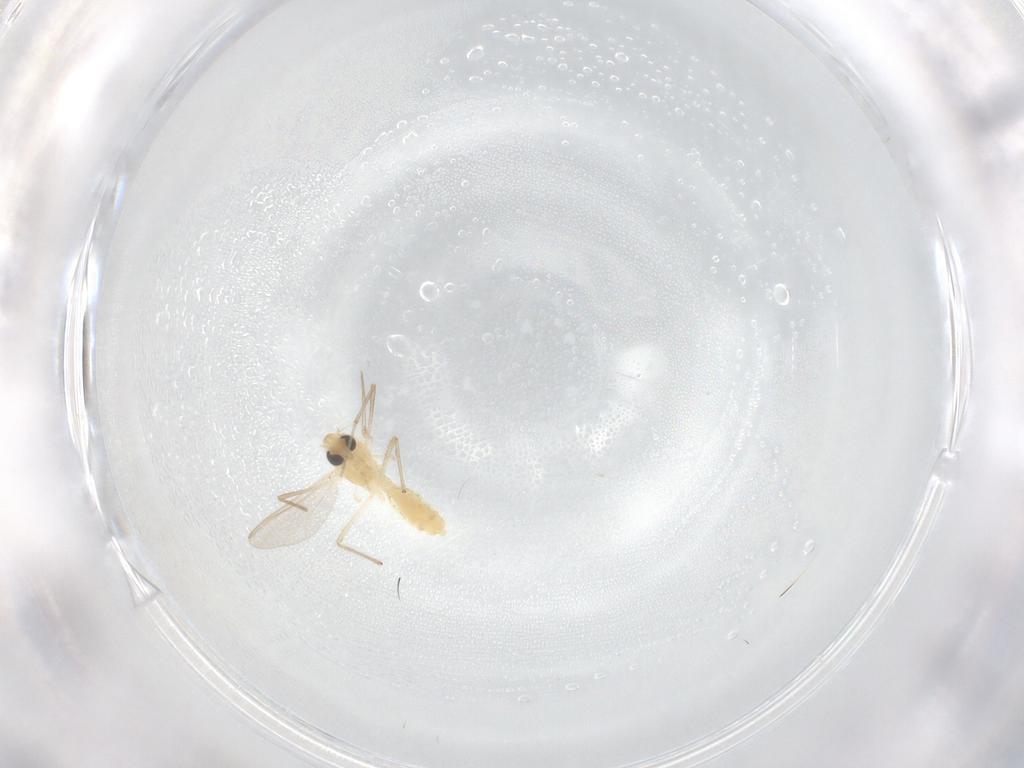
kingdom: Animalia
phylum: Arthropoda
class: Insecta
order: Diptera
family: Chironomidae
